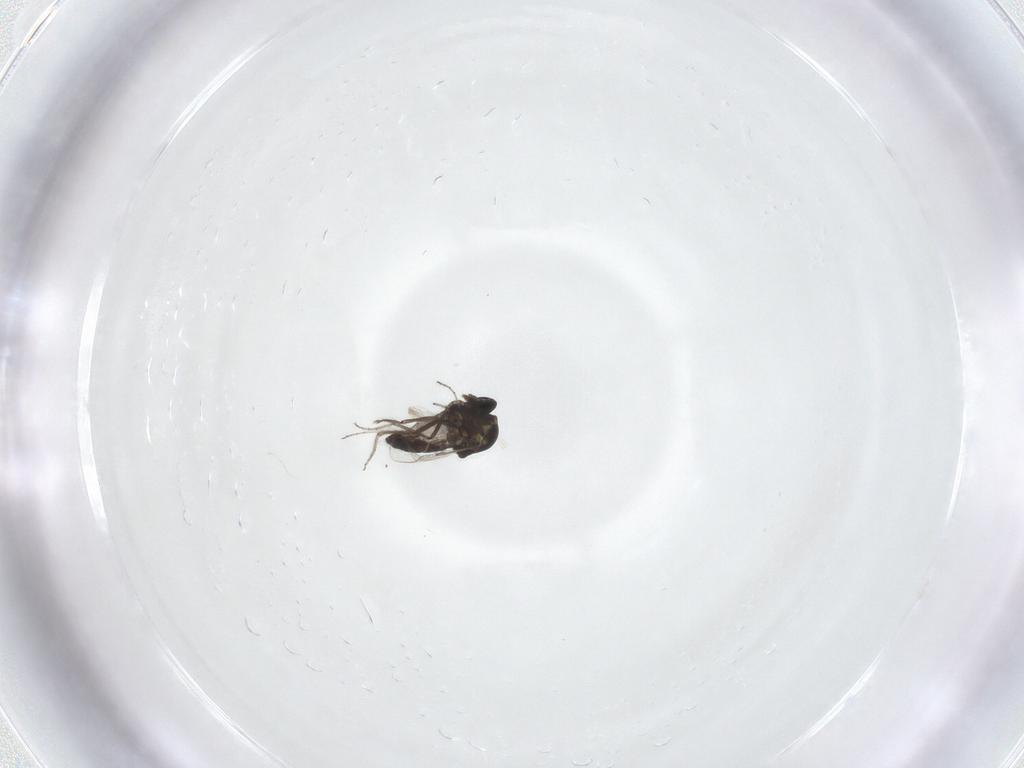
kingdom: Animalia
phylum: Arthropoda
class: Insecta
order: Diptera
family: Ceratopogonidae
